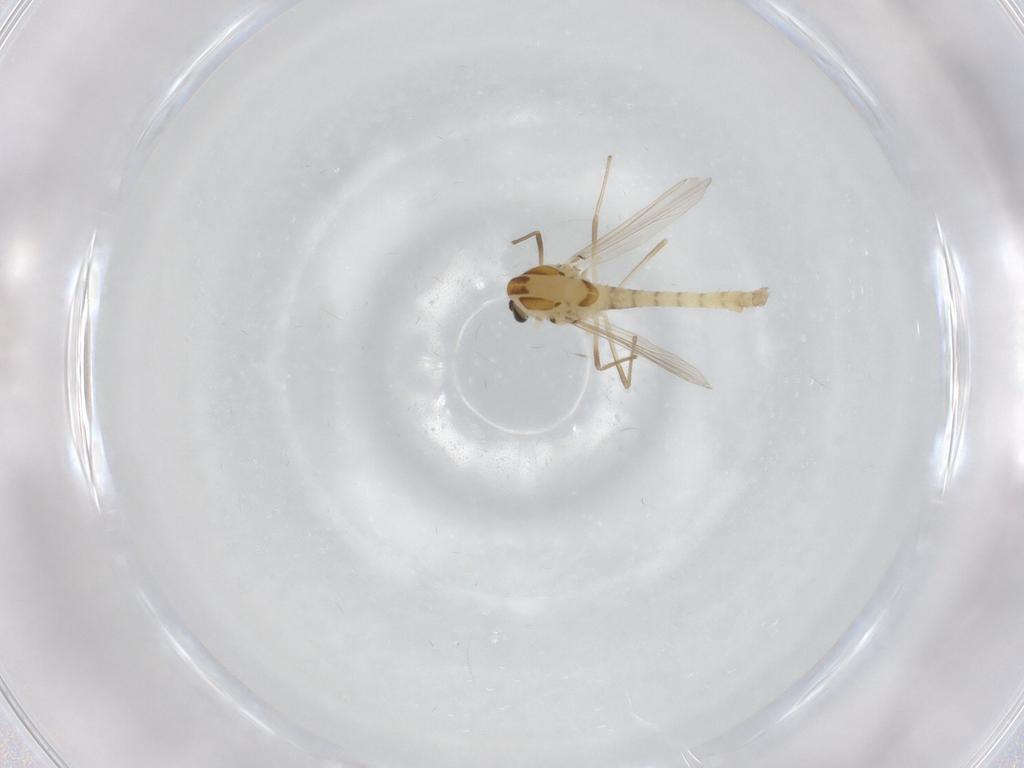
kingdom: Animalia
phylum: Arthropoda
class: Insecta
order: Diptera
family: Chironomidae
